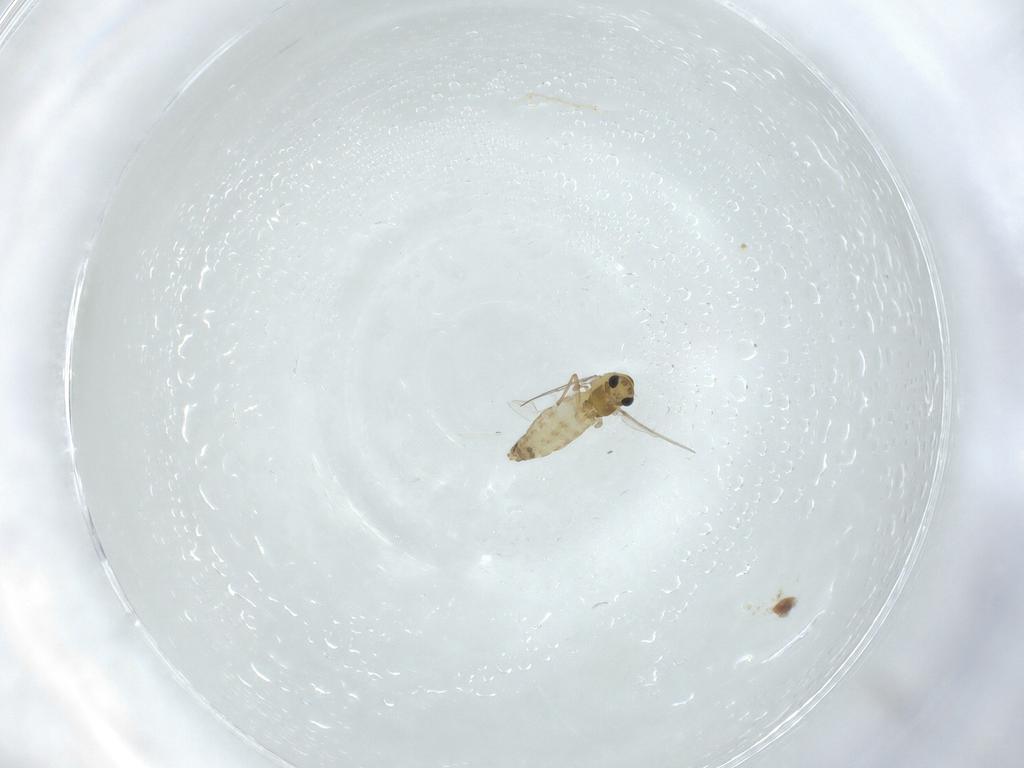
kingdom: Animalia
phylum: Arthropoda
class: Insecta
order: Diptera
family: Chironomidae
